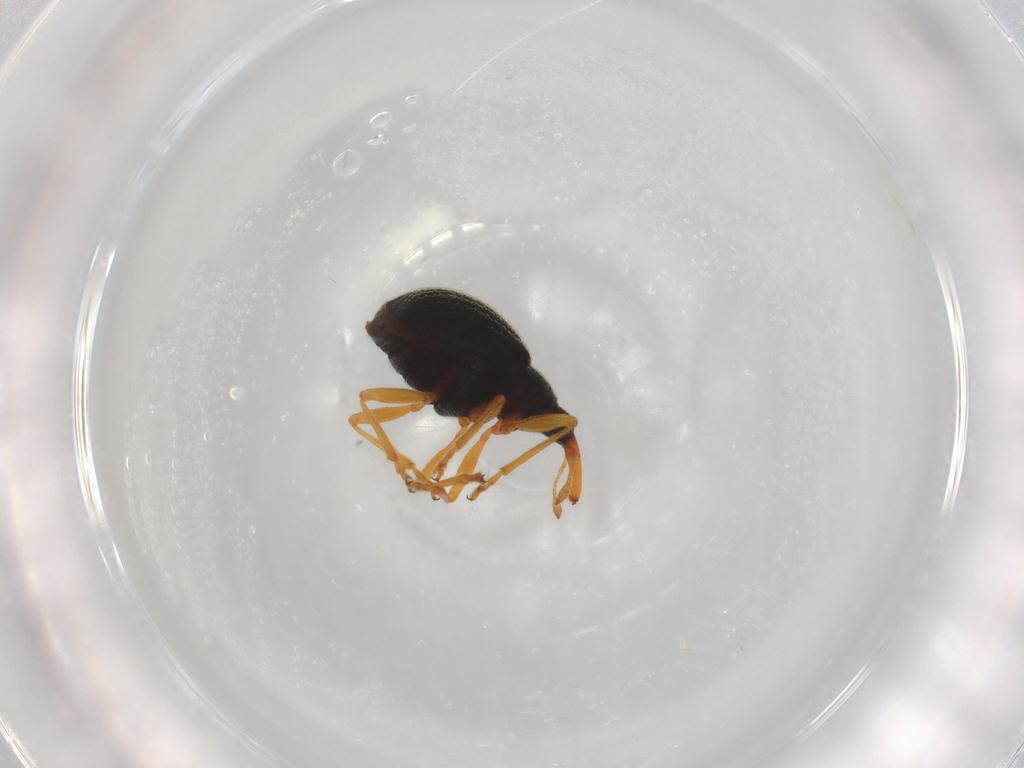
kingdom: Animalia
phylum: Arthropoda
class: Insecta
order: Coleoptera
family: Brentidae
